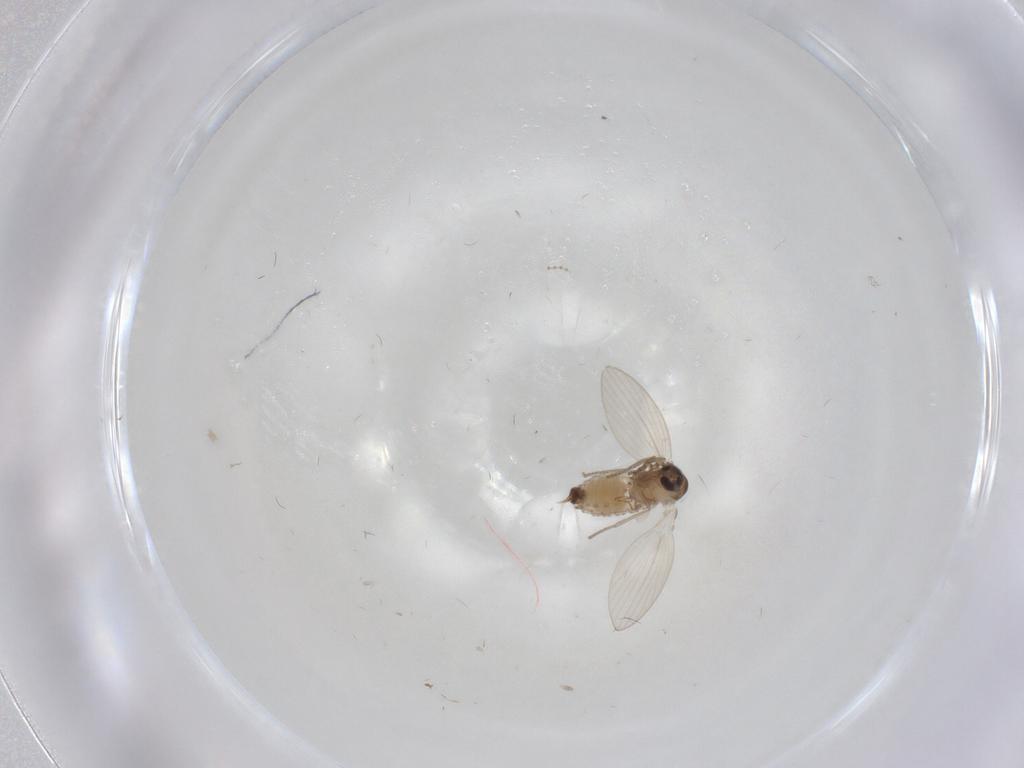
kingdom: Animalia
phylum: Arthropoda
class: Insecta
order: Diptera
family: Psychodidae
